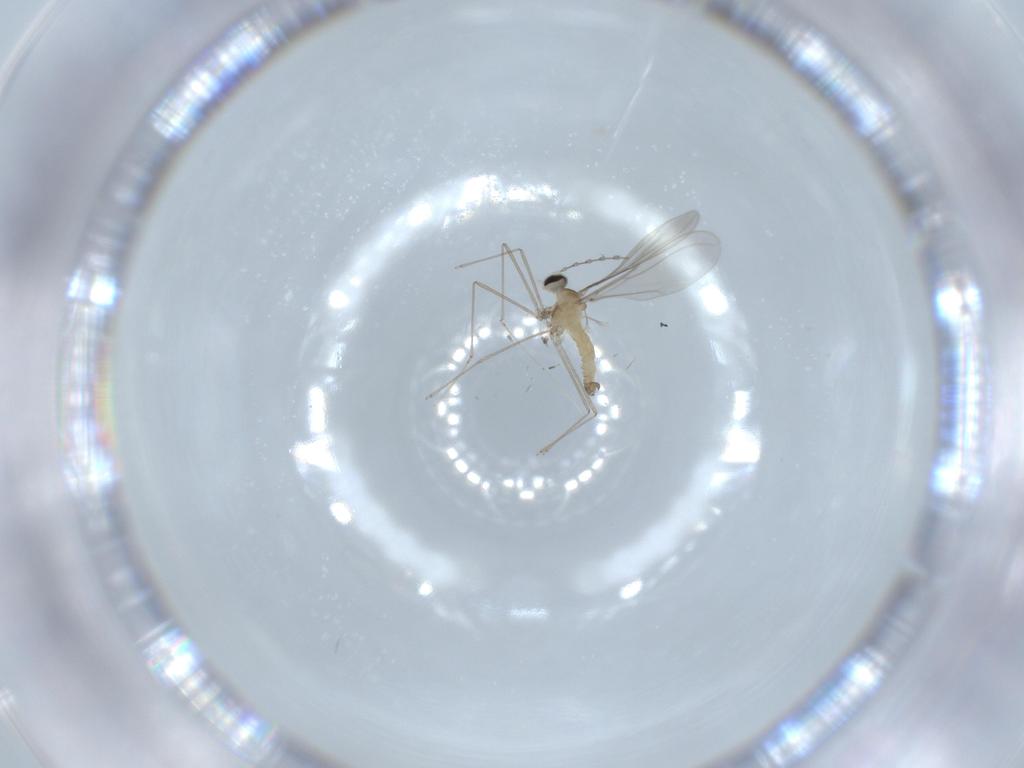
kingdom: Animalia
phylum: Arthropoda
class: Insecta
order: Diptera
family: Cecidomyiidae
